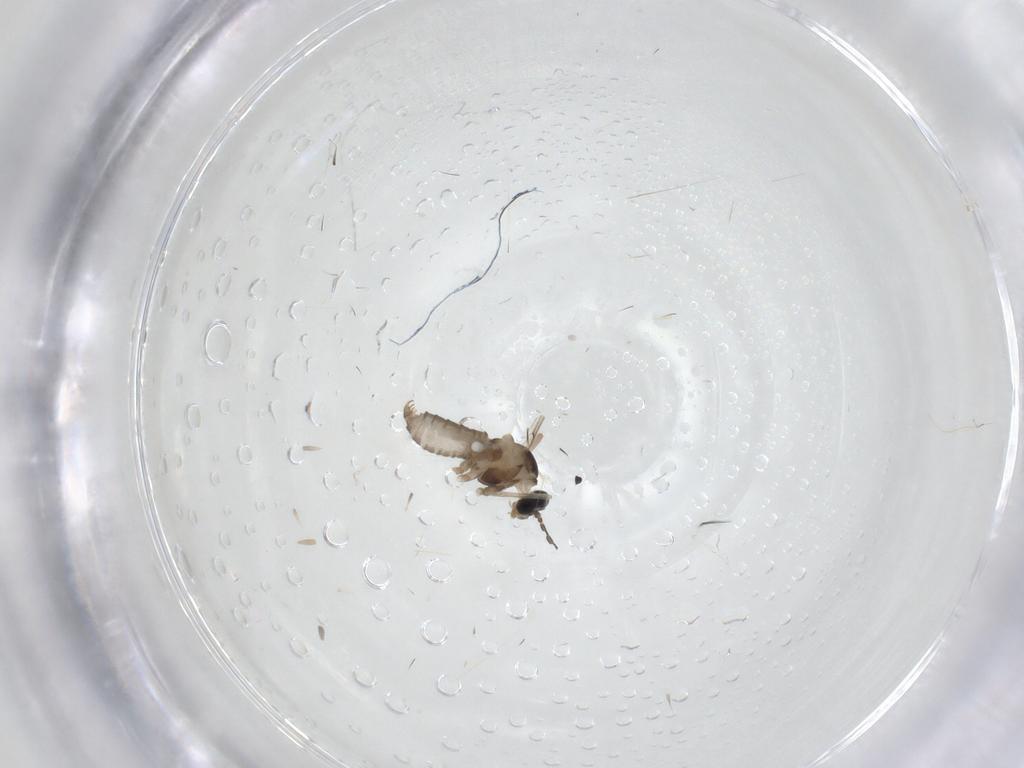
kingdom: Animalia
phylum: Arthropoda
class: Insecta
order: Diptera
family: Cecidomyiidae
